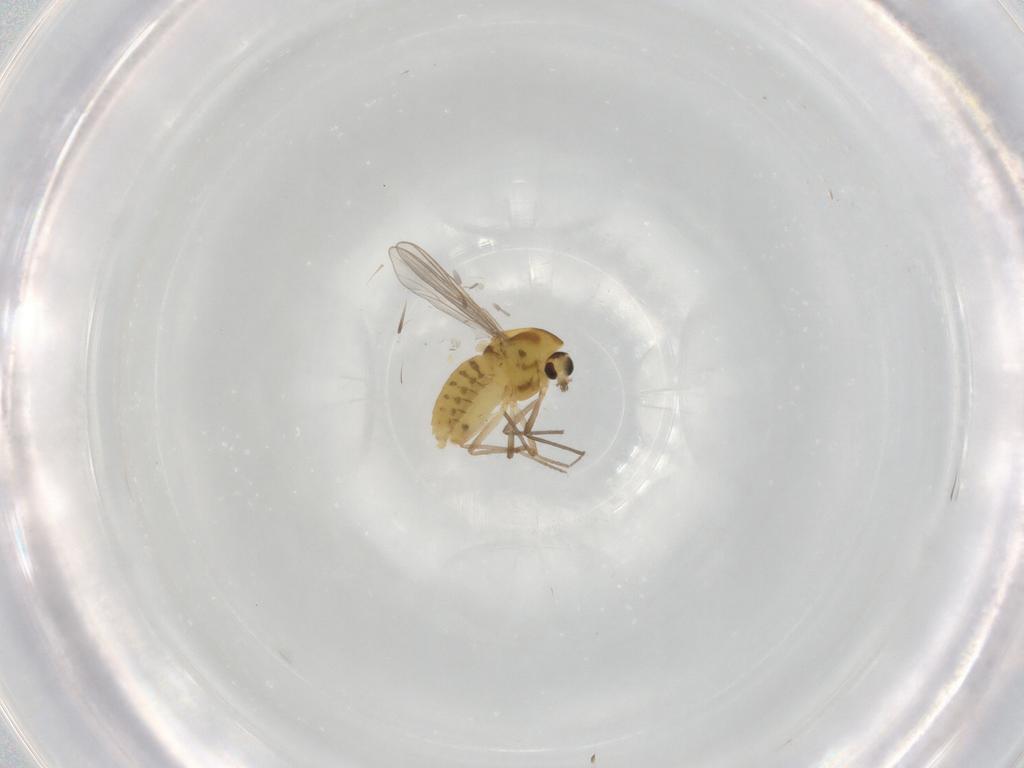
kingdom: Animalia
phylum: Arthropoda
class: Insecta
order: Diptera
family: Chironomidae
